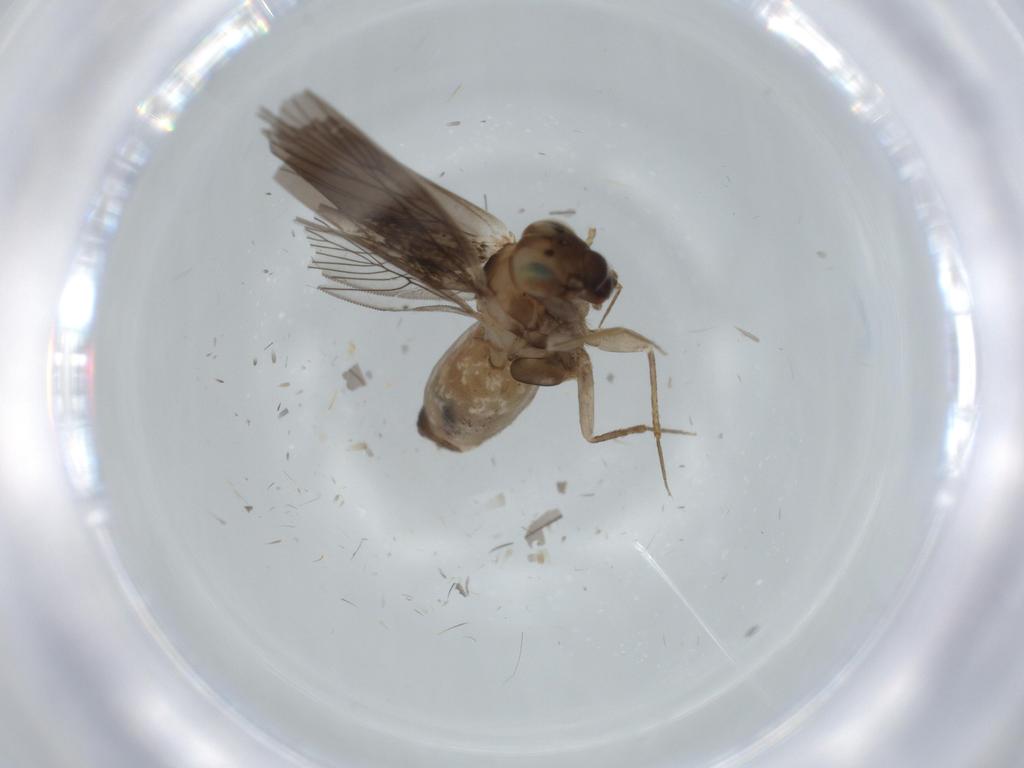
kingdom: Animalia
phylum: Arthropoda
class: Insecta
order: Psocodea
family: Lepidopsocidae
